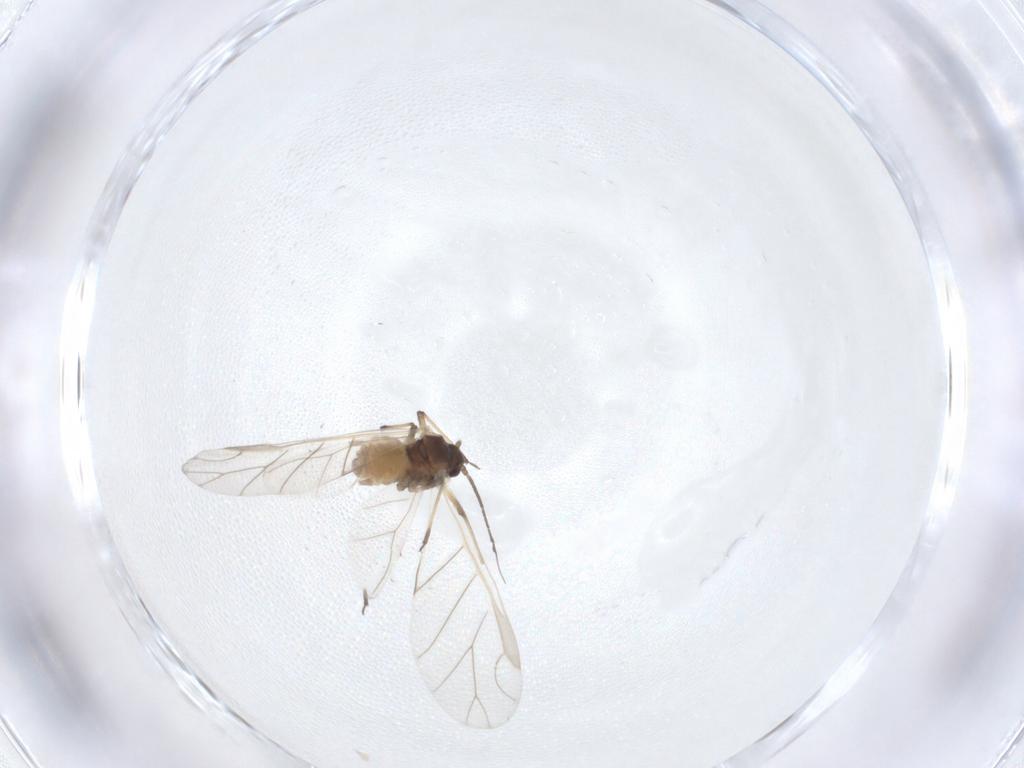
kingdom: Animalia
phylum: Arthropoda
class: Insecta
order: Hemiptera
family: Aphididae
